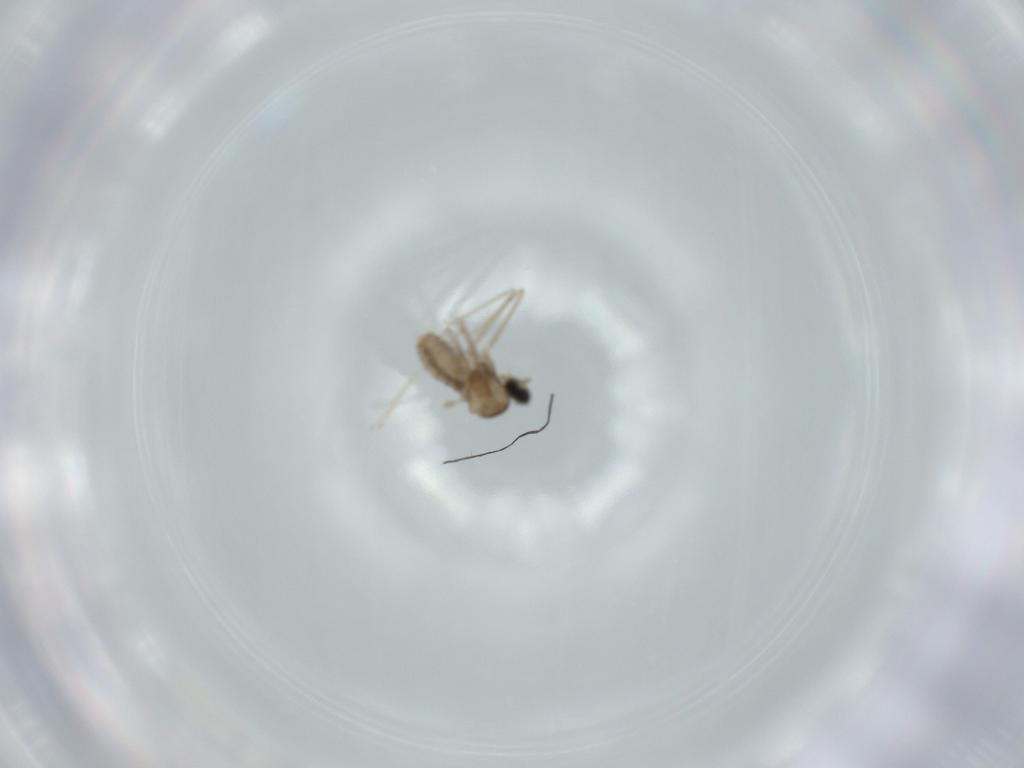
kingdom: Animalia
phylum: Arthropoda
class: Insecta
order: Diptera
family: Cecidomyiidae
